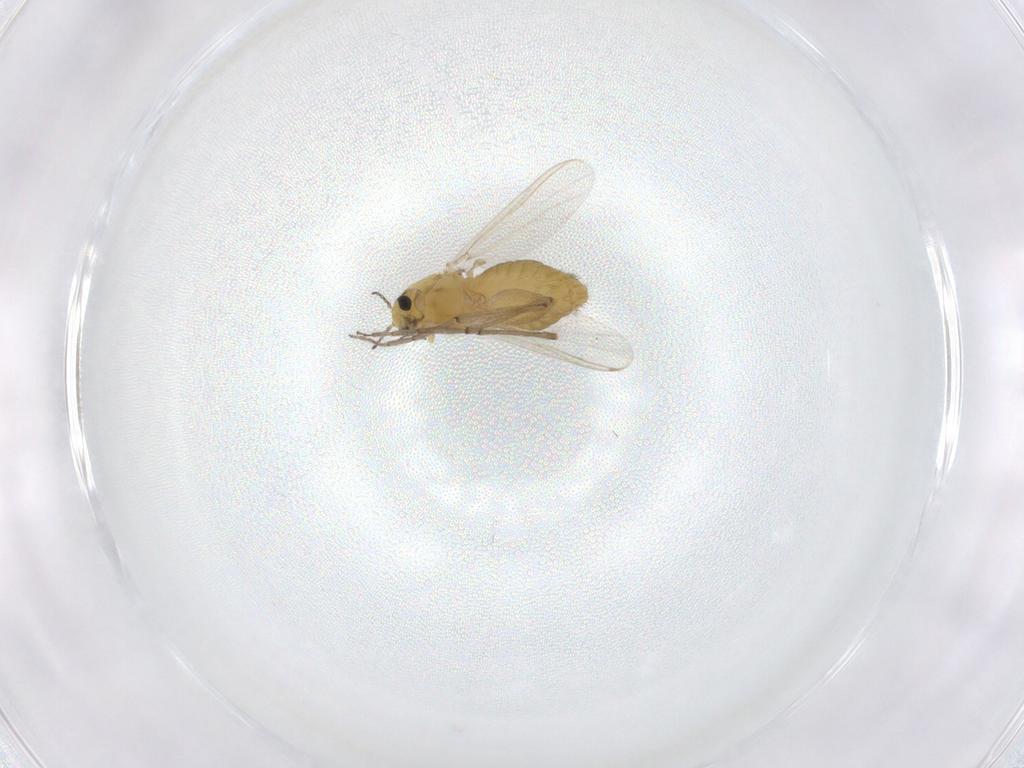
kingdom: Animalia
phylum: Arthropoda
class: Insecta
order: Diptera
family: Chironomidae
